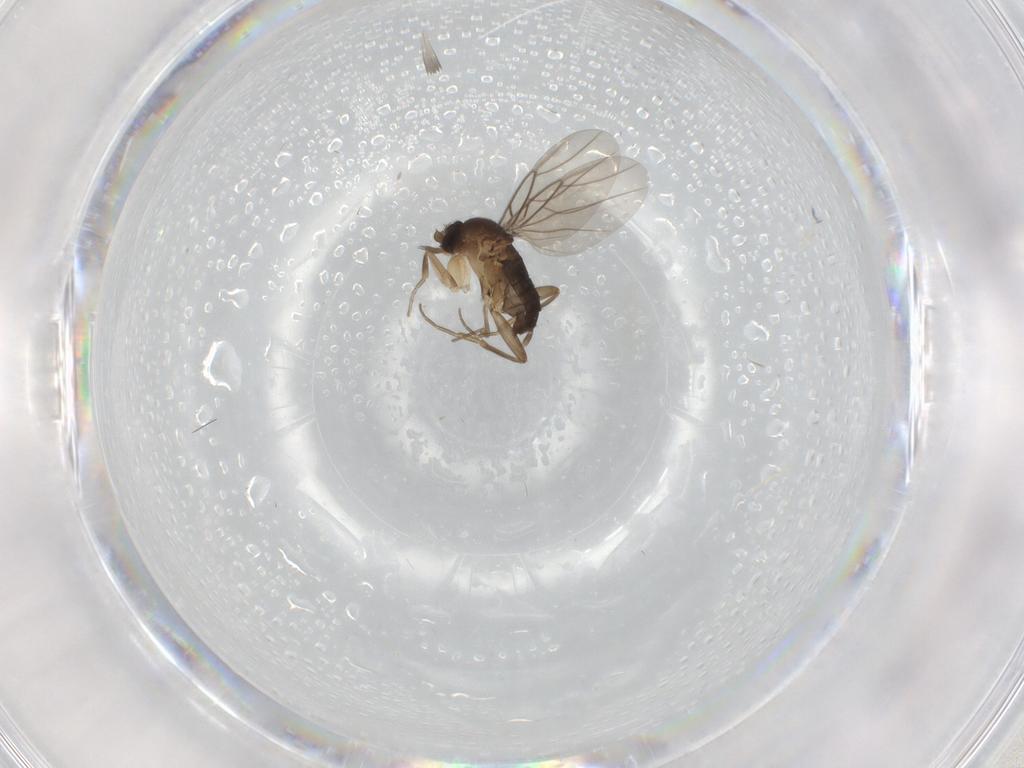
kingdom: Animalia
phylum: Arthropoda
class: Insecta
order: Diptera
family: Phoridae
